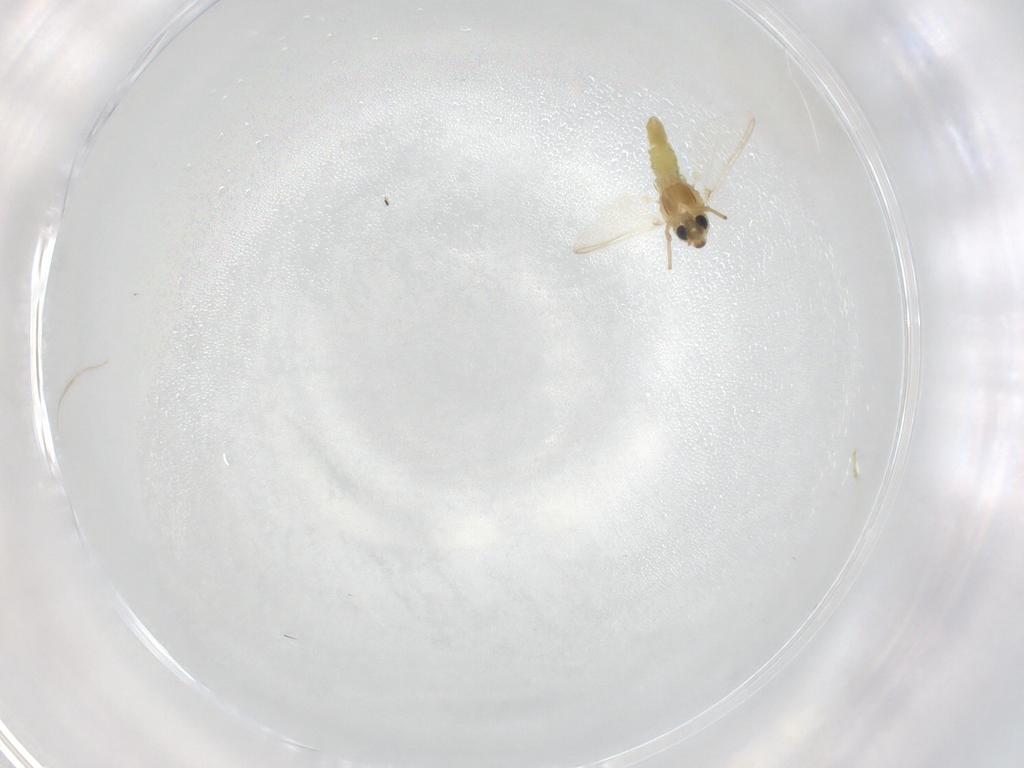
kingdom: Animalia
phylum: Arthropoda
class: Insecta
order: Diptera
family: Chironomidae
